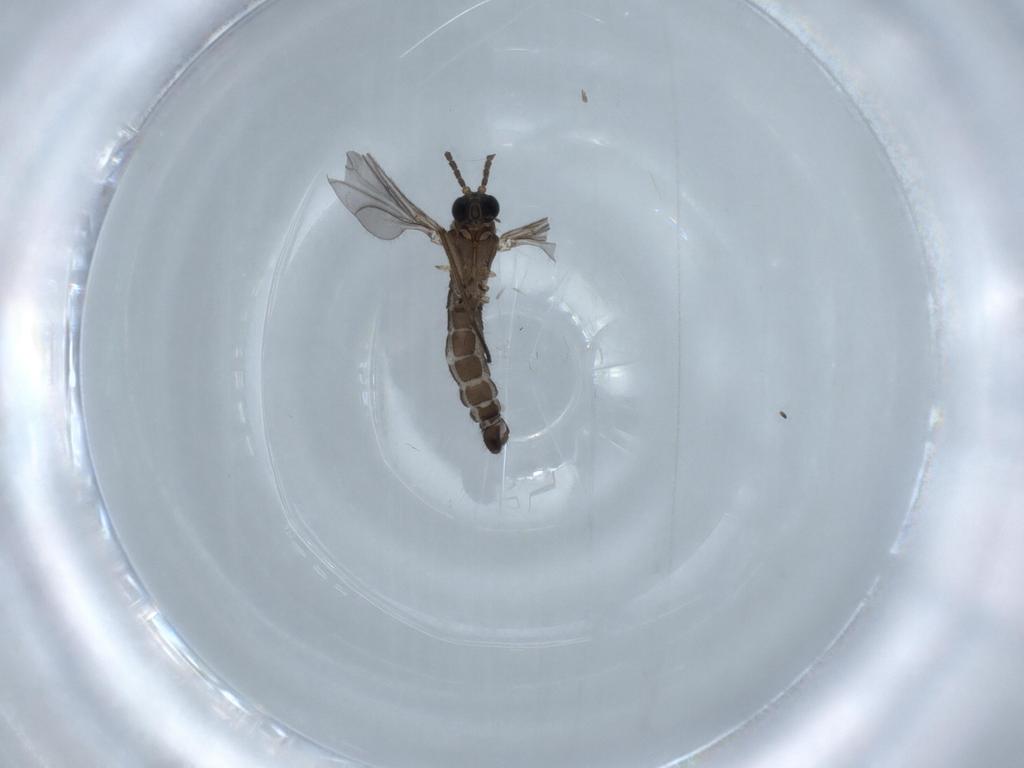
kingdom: Animalia
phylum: Arthropoda
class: Insecta
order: Diptera
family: Sciaridae
